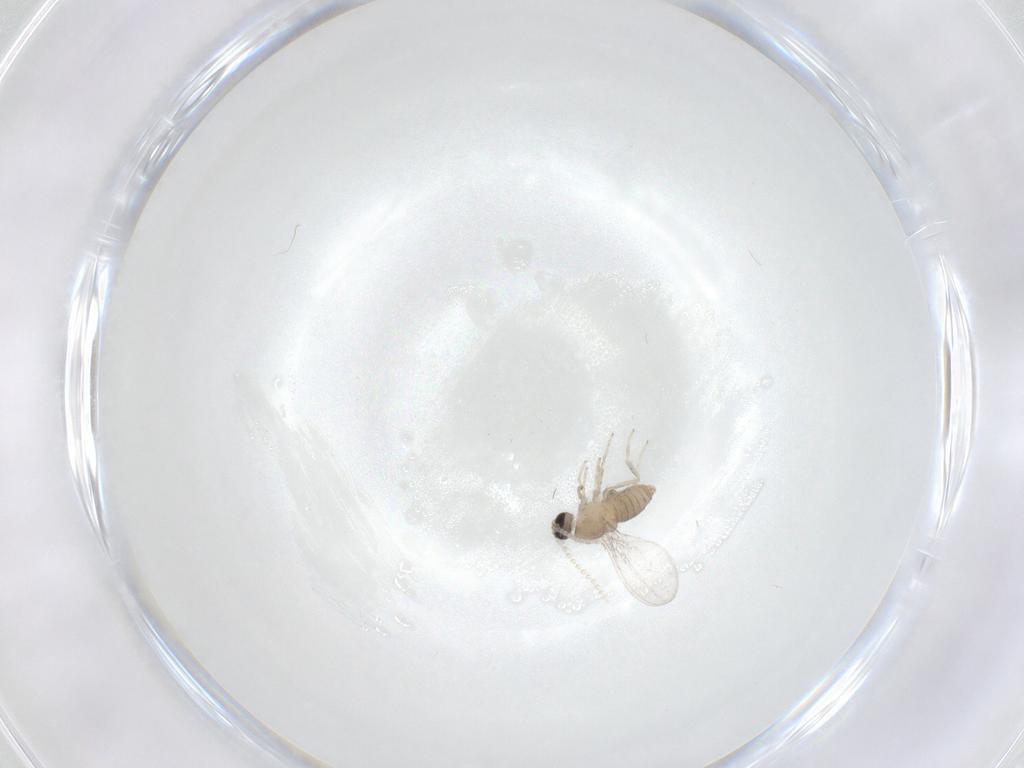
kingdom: Animalia
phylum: Arthropoda
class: Insecta
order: Diptera
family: Cecidomyiidae
